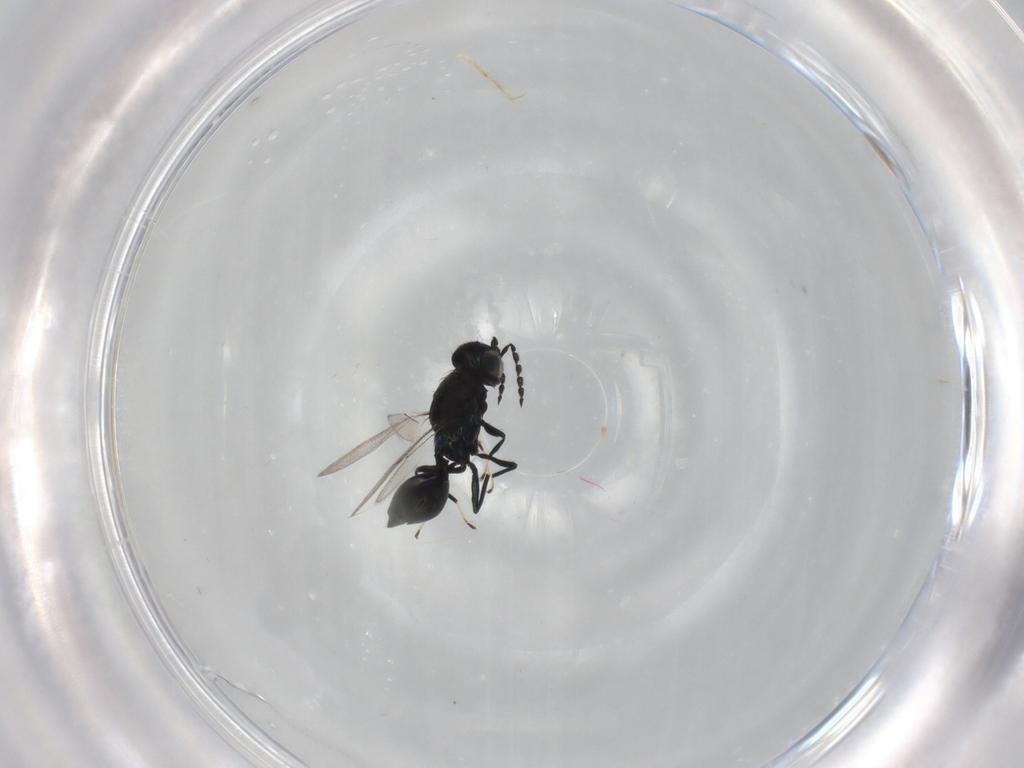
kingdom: Animalia
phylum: Arthropoda
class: Insecta
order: Hymenoptera
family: Eulophidae
